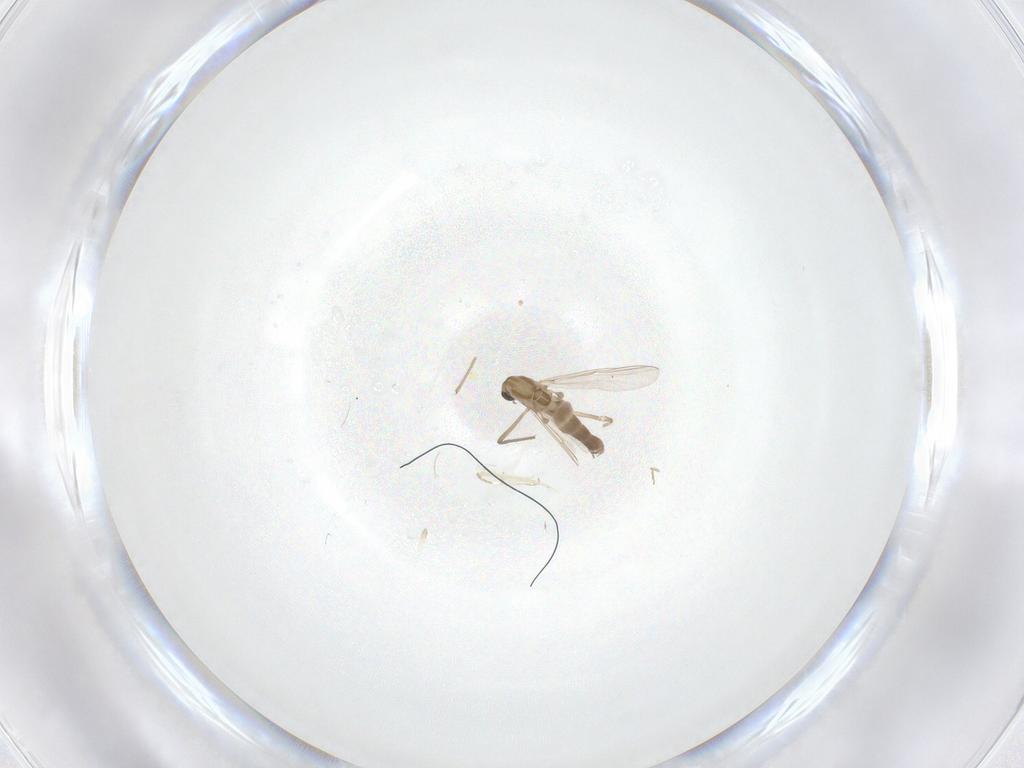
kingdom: Animalia
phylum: Arthropoda
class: Insecta
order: Diptera
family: Chironomidae
